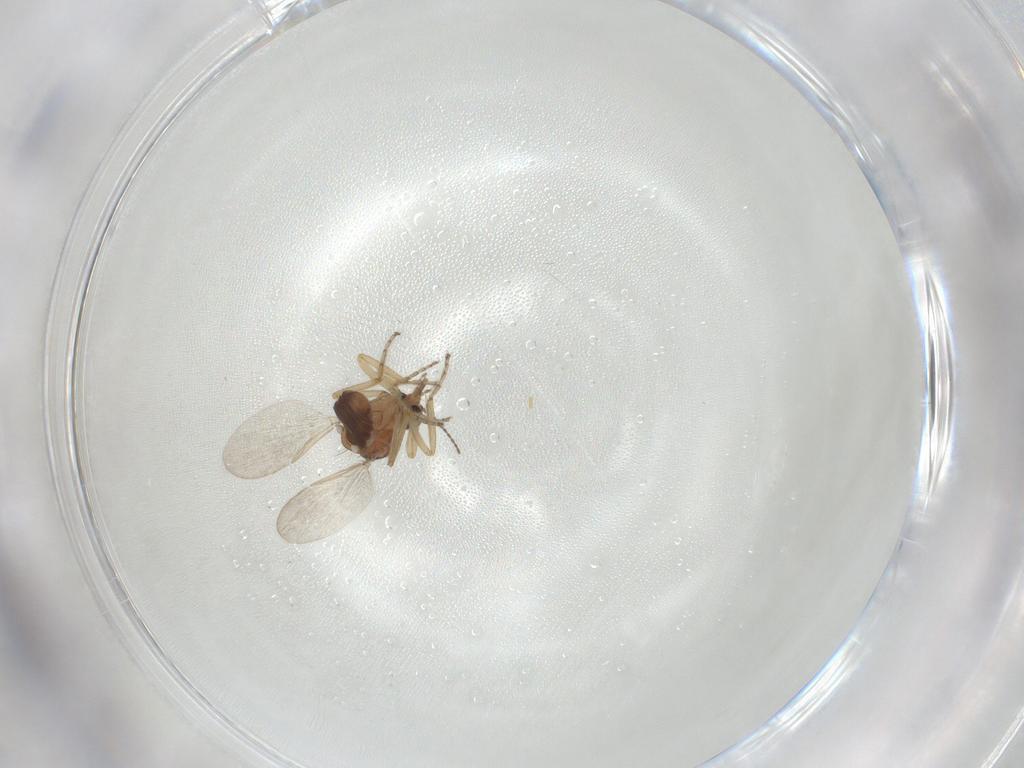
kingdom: Animalia
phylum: Arthropoda
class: Insecta
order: Diptera
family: Ceratopogonidae
